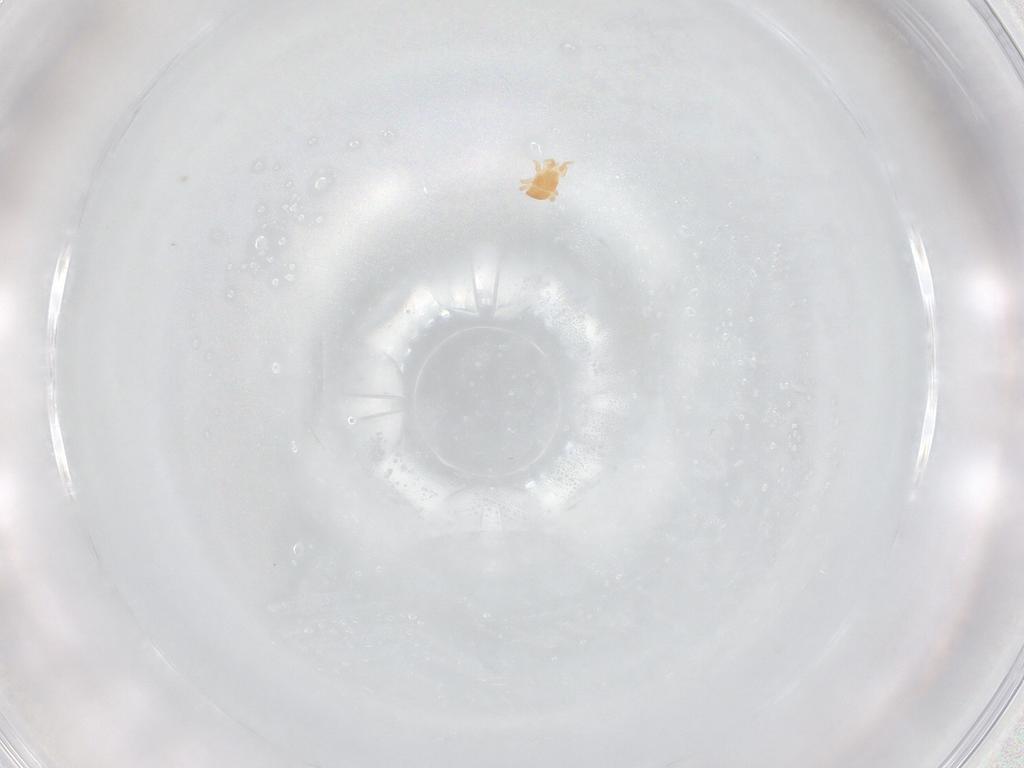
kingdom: Animalia
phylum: Arthropoda
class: Arachnida
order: Mesostigmata
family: Digamasellidae
